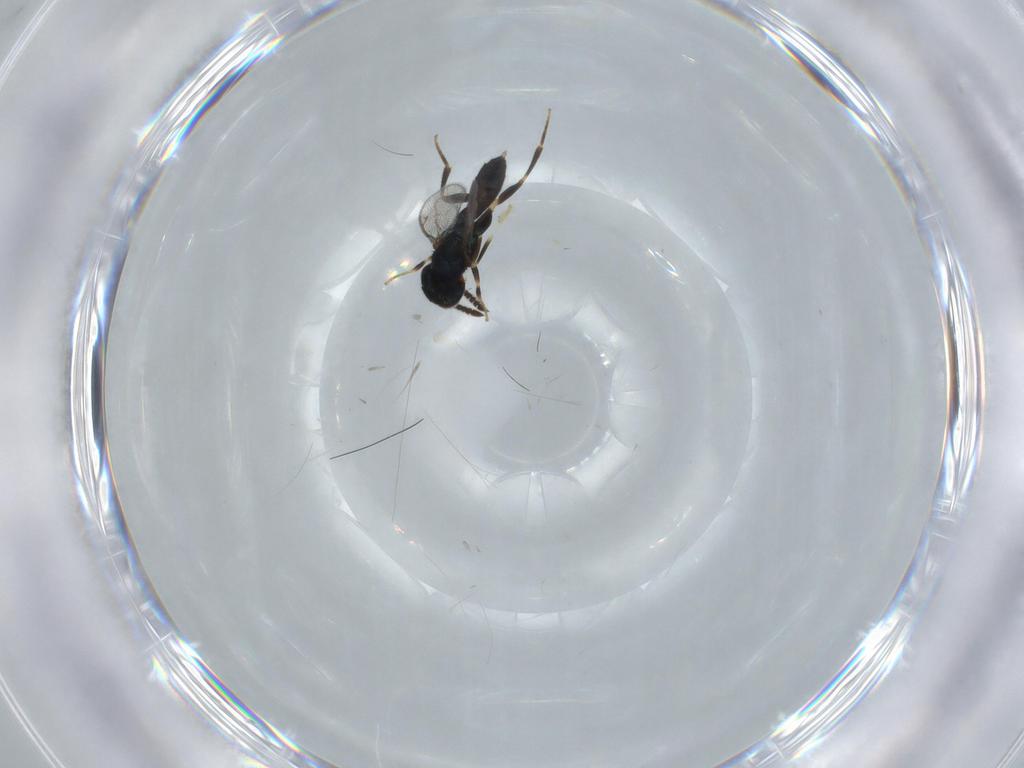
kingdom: Animalia
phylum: Arthropoda
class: Insecta
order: Hymenoptera
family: Cleonyminae
